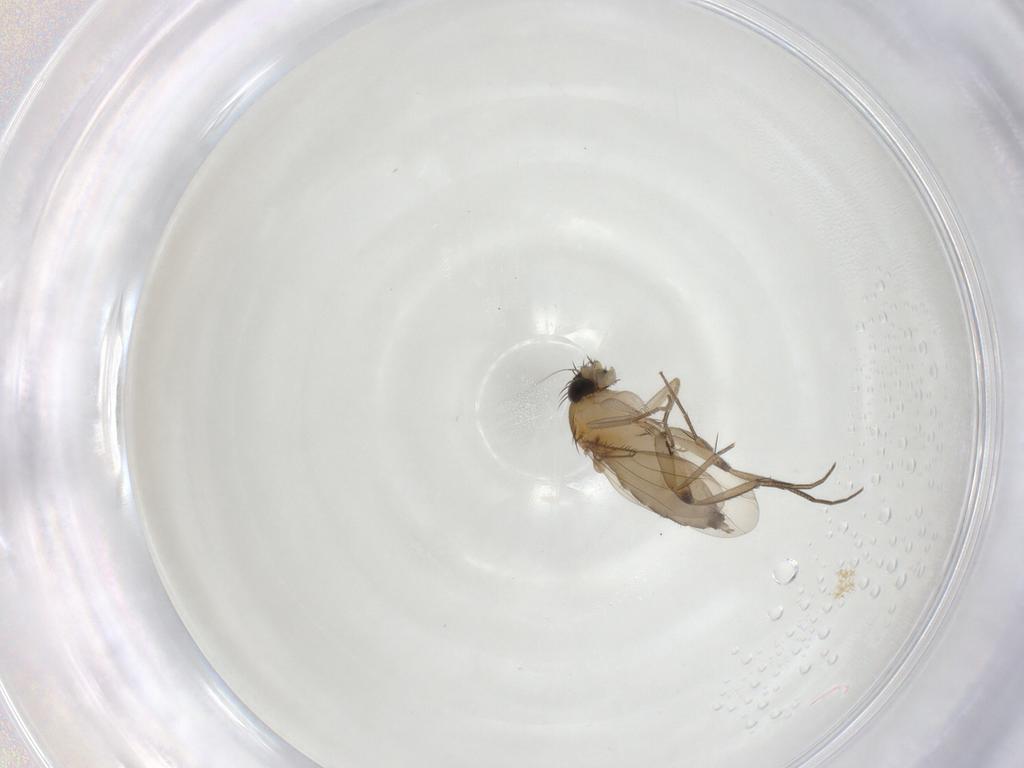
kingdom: Animalia
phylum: Arthropoda
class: Insecta
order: Diptera
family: Phoridae
